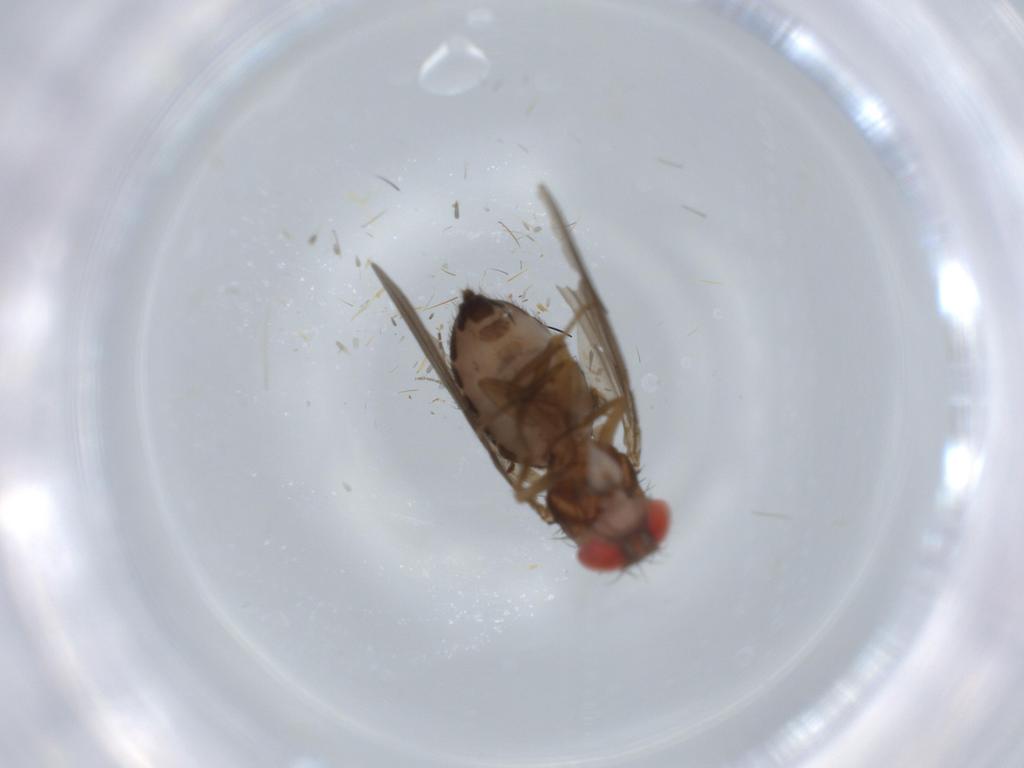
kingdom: Animalia
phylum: Arthropoda
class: Insecta
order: Diptera
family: Drosophilidae
